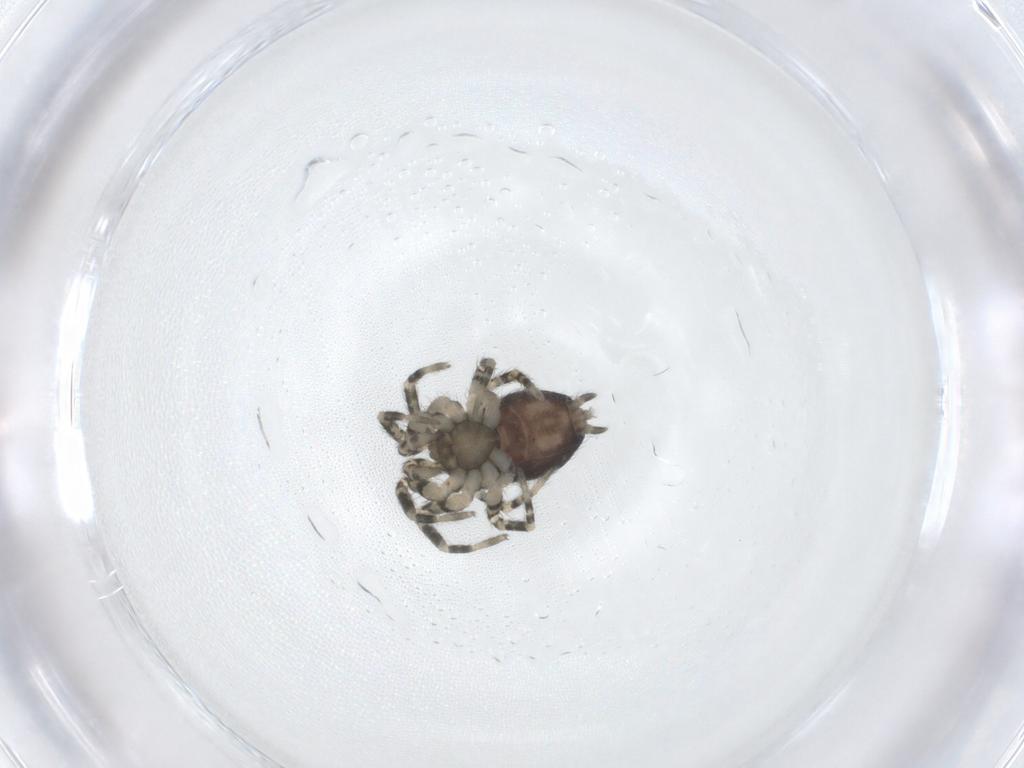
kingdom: Animalia
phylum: Arthropoda
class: Arachnida
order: Araneae
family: Oecobiidae
